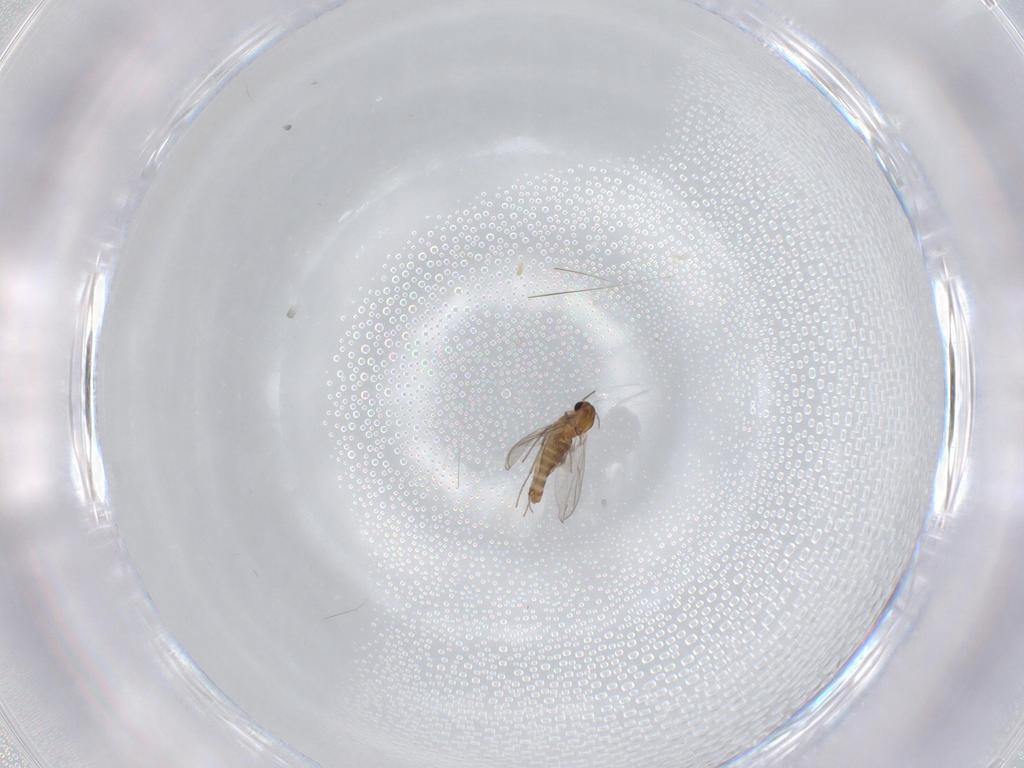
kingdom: Animalia
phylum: Arthropoda
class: Insecta
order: Diptera
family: Chironomidae
